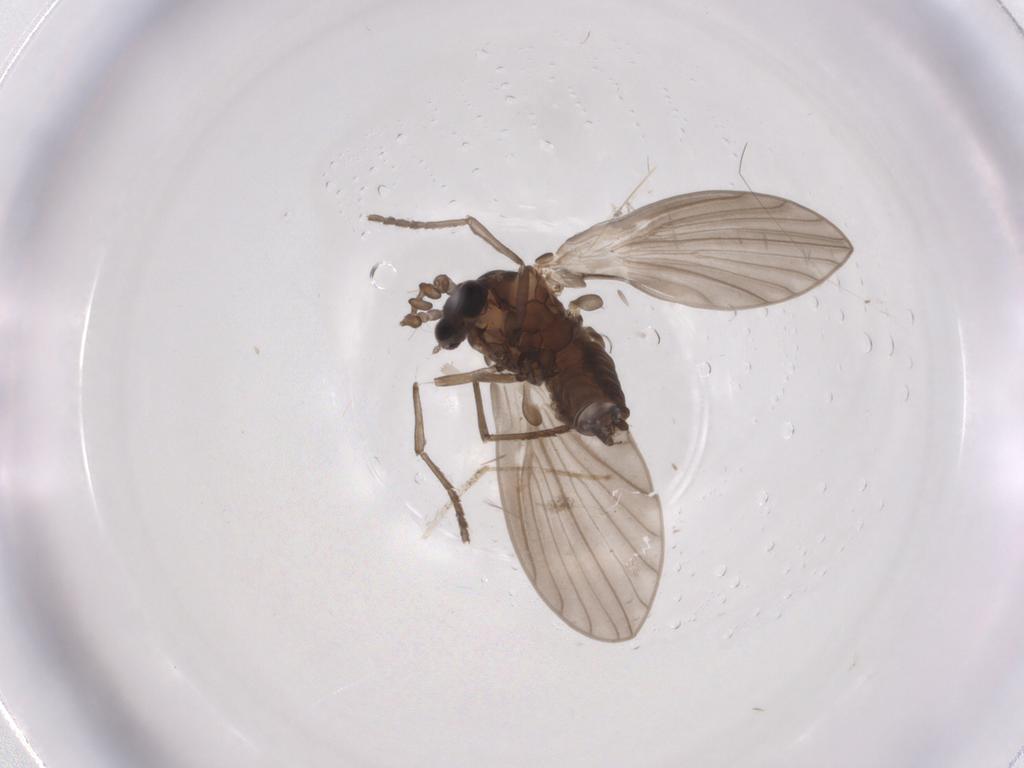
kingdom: Animalia
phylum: Arthropoda
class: Insecta
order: Diptera
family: Psychodidae
